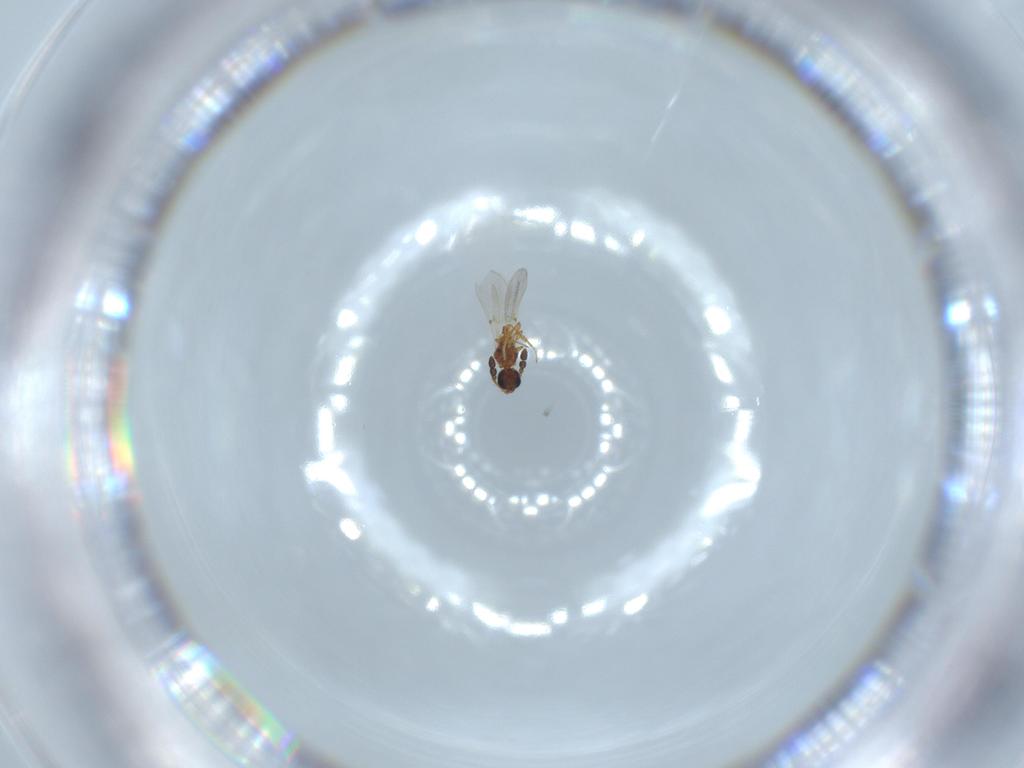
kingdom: Animalia
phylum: Arthropoda
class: Insecta
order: Hymenoptera
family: Diapriidae
